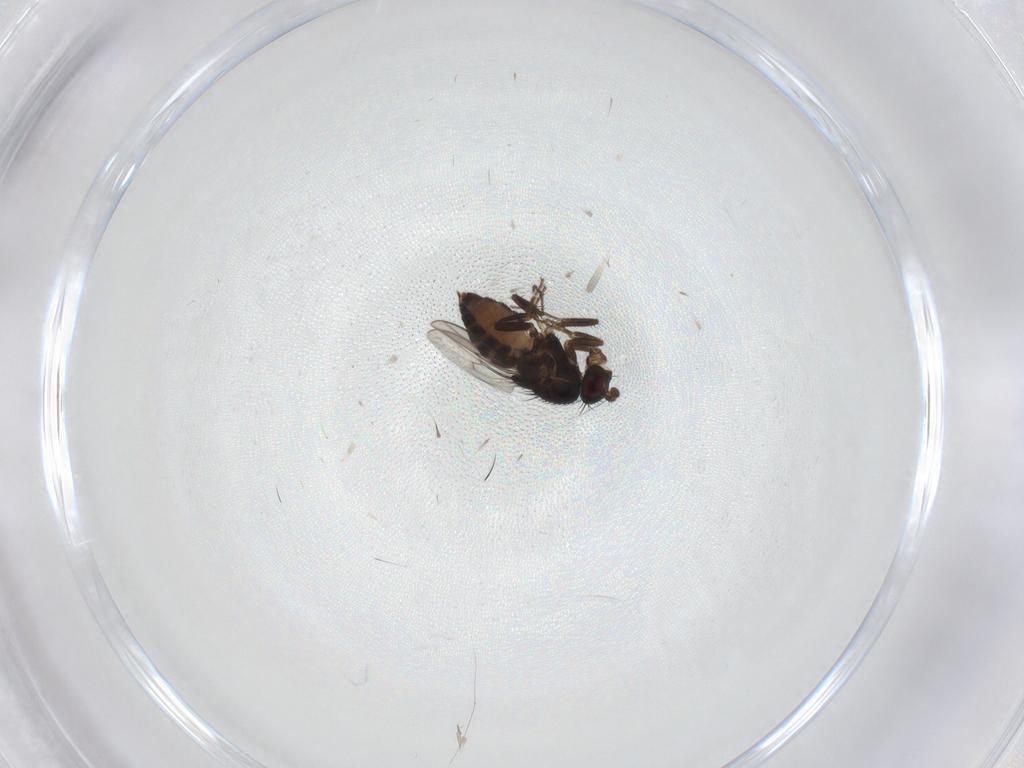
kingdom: Animalia
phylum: Arthropoda
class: Insecta
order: Diptera
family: Sphaeroceridae
